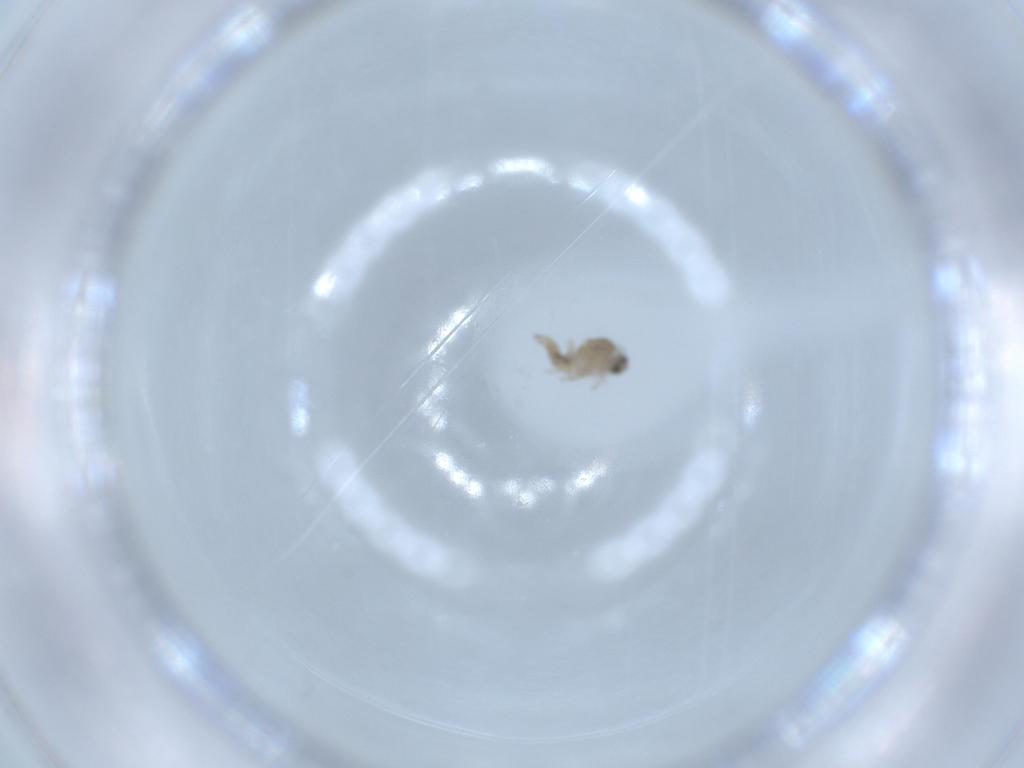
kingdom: Animalia
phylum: Arthropoda
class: Insecta
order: Diptera
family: Cecidomyiidae
